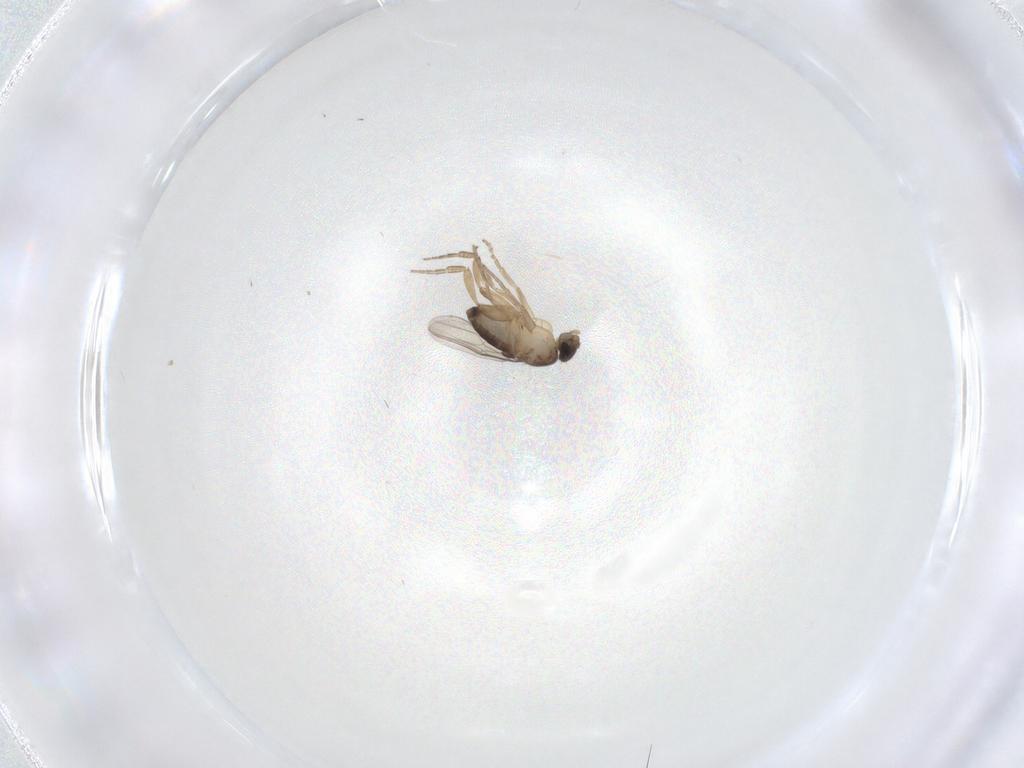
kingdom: Animalia
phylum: Arthropoda
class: Insecta
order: Diptera
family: Phoridae
